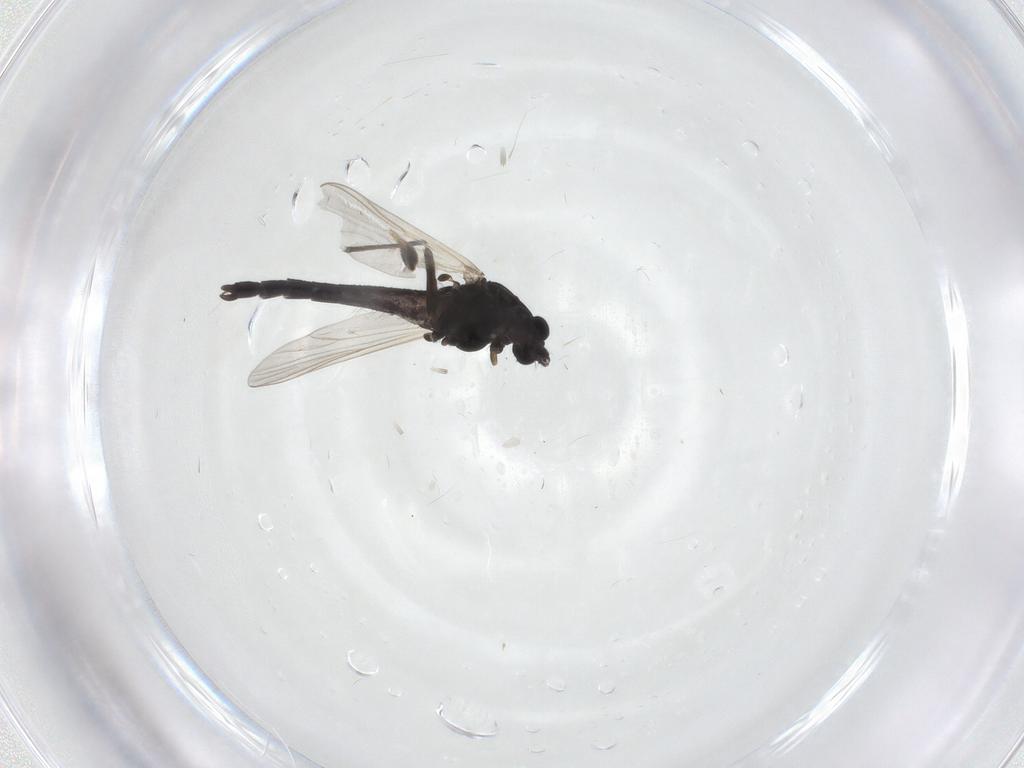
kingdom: Animalia
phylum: Arthropoda
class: Insecta
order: Diptera
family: Chironomidae
